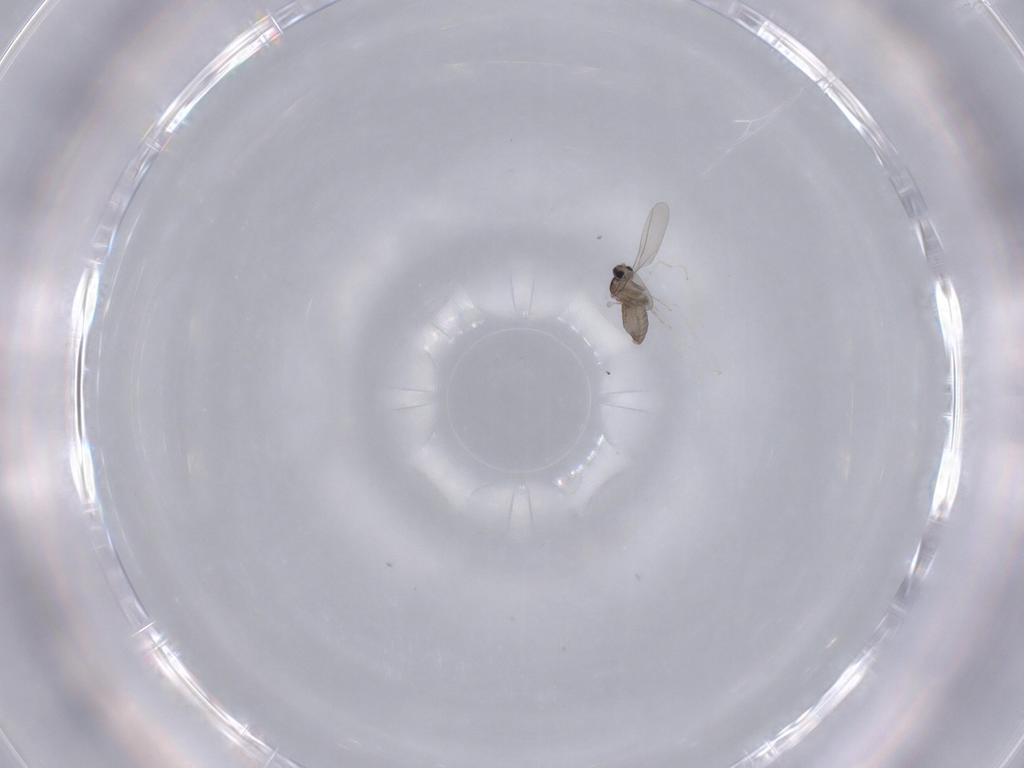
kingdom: Animalia
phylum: Arthropoda
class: Insecta
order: Diptera
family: Cecidomyiidae
